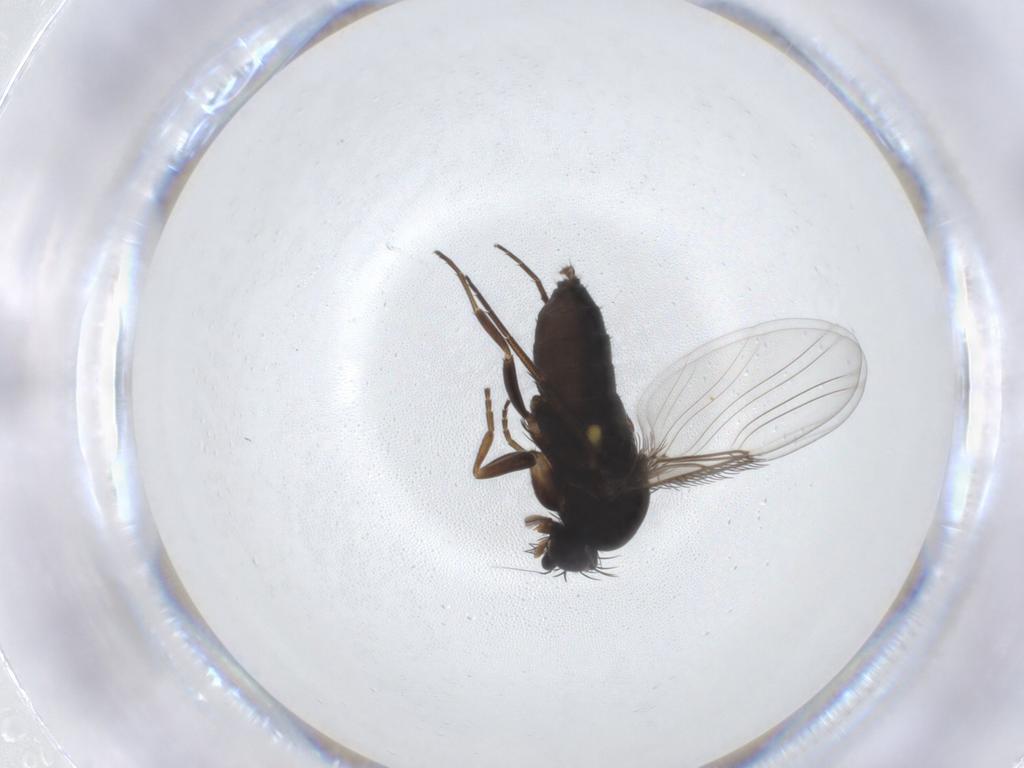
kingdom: Animalia
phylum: Arthropoda
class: Insecta
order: Diptera
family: Phoridae
